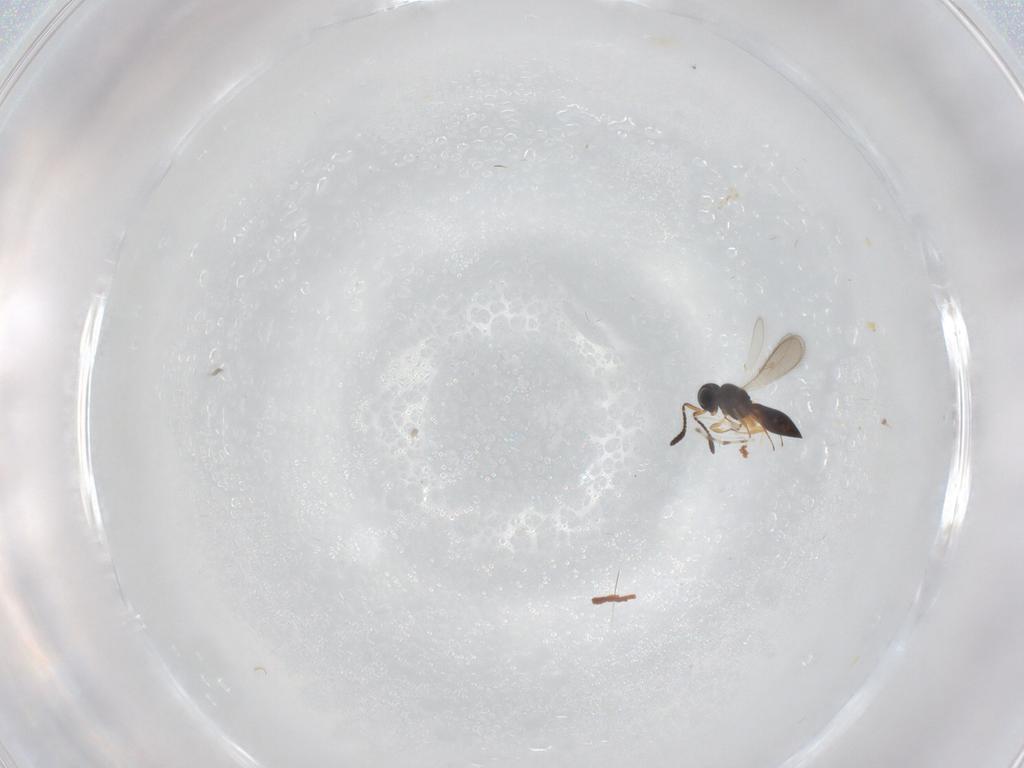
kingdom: Animalia
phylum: Arthropoda
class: Insecta
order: Hymenoptera
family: Scelionidae
